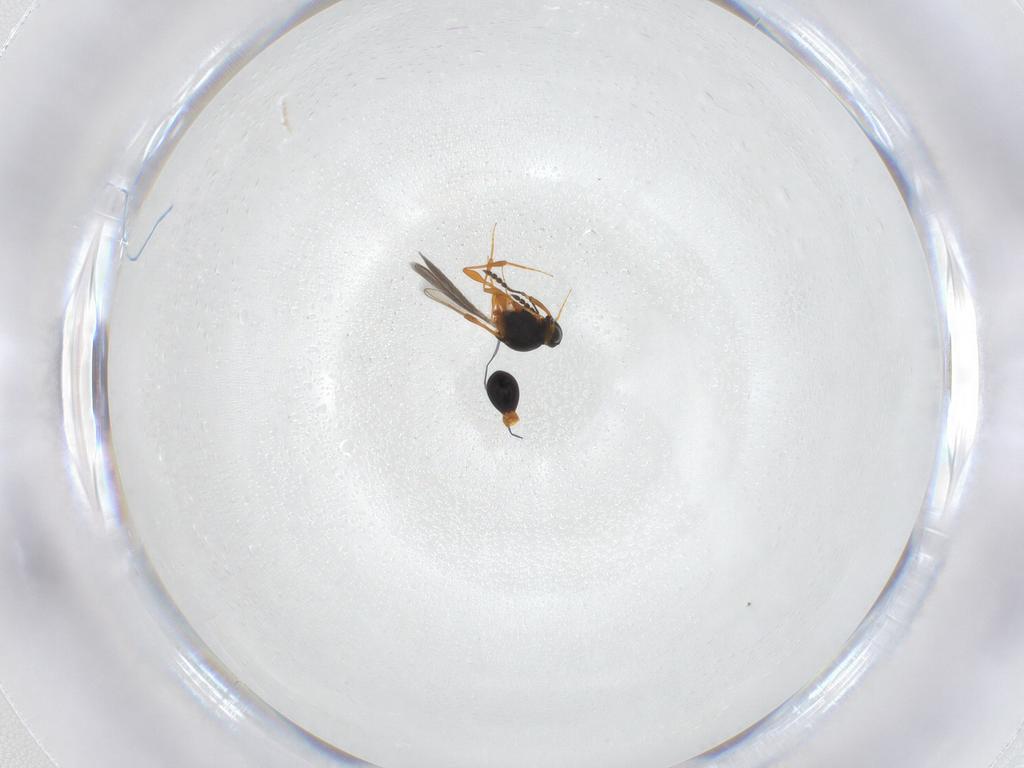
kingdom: Animalia
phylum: Arthropoda
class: Insecta
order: Hymenoptera
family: Platygastridae
